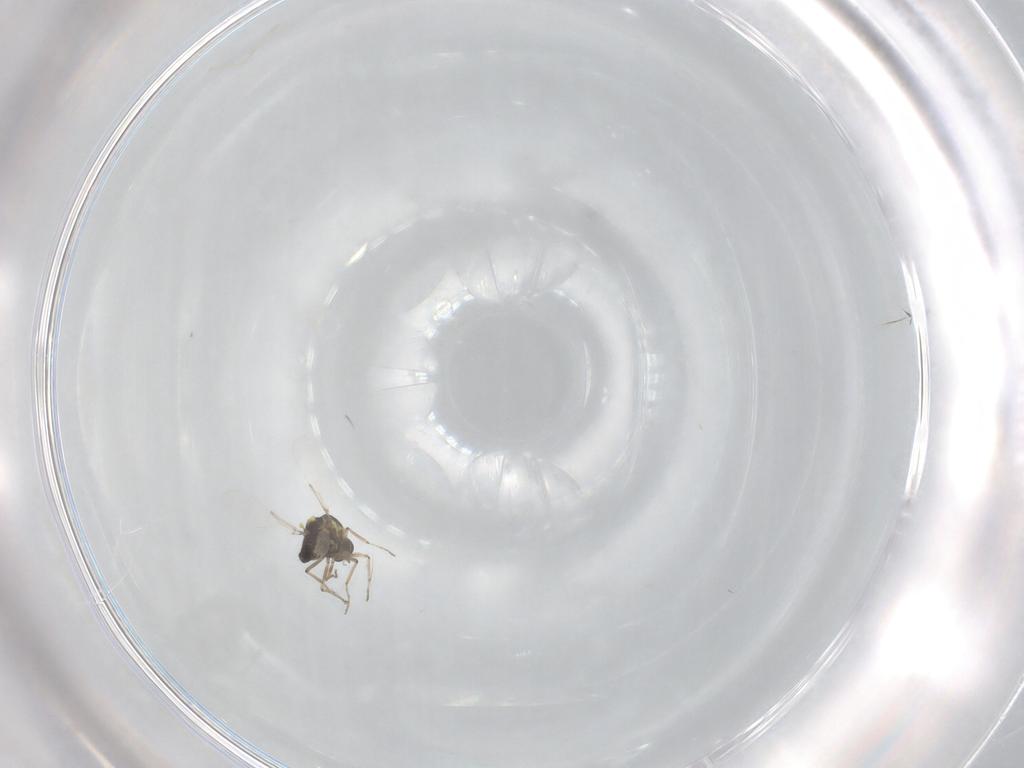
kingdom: Animalia
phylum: Arthropoda
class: Insecta
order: Diptera
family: Ceratopogonidae
